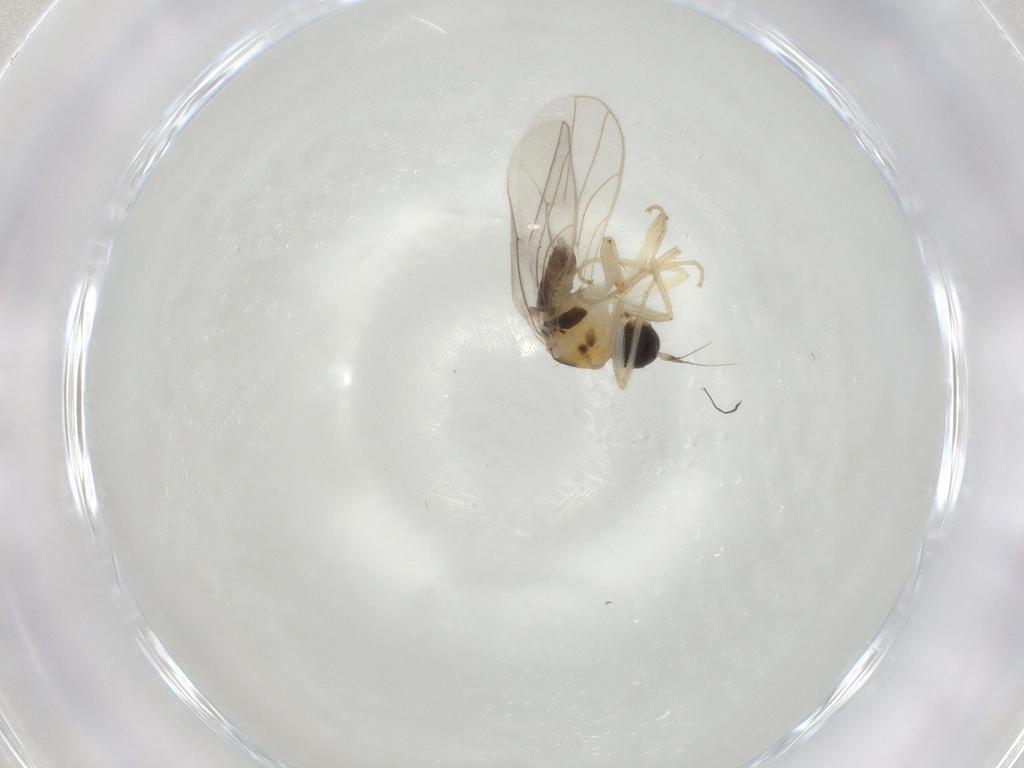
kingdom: Animalia
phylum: Arthropoda
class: Insecta
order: Diptera
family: Hybotidae
